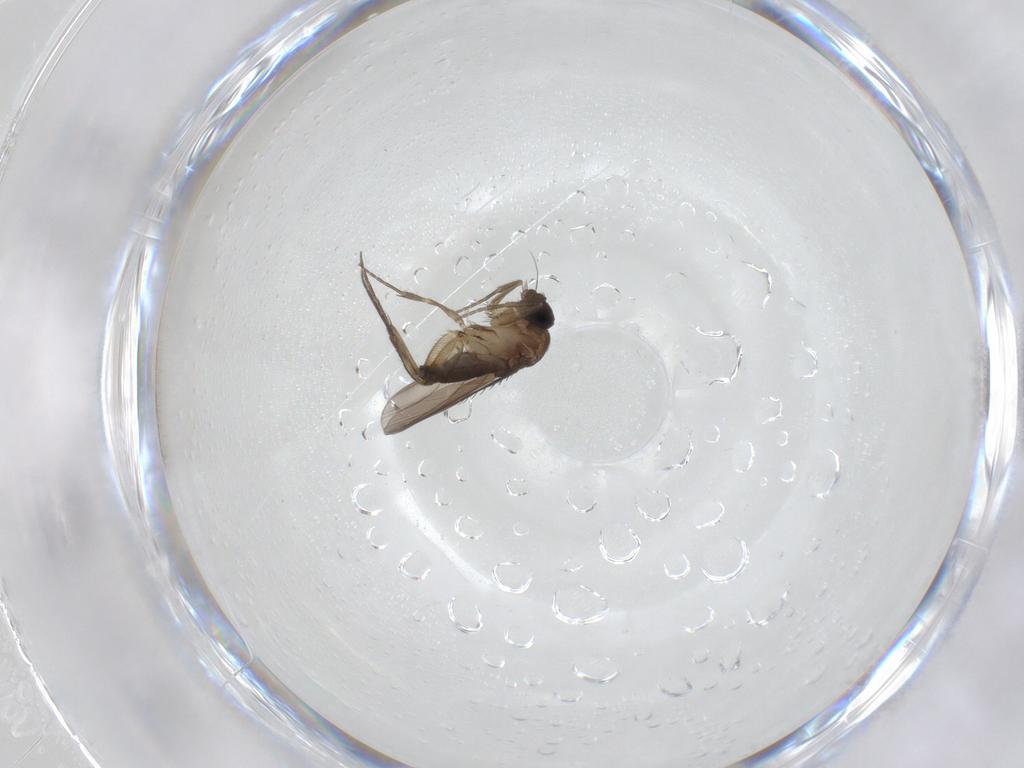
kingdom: Animalia
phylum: Arthropoda
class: Insecta
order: Diptera
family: Phoridae
